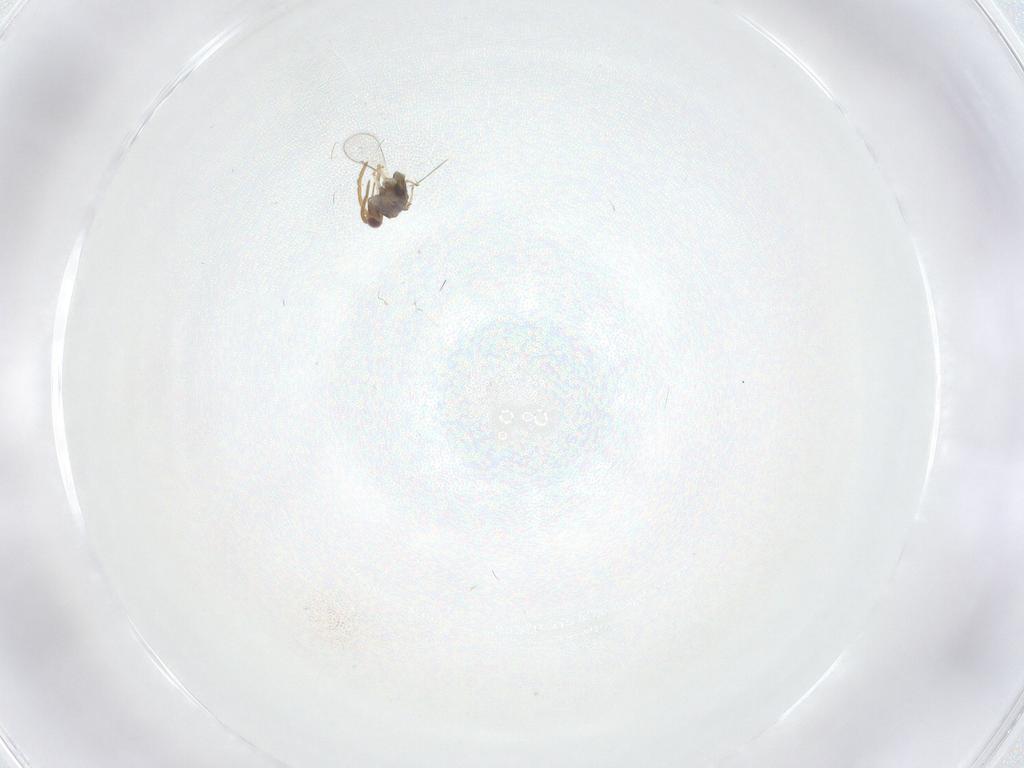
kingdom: Animalia
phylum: Arthropoda
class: Insecta
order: Hymenoptera
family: Aphelinidae
